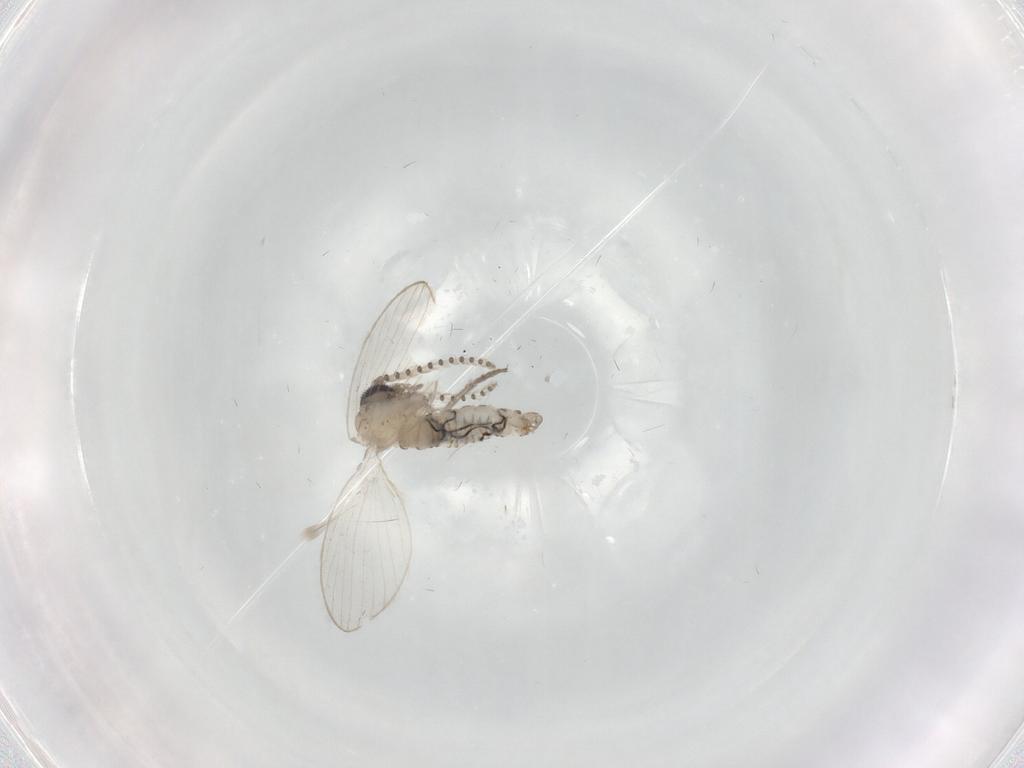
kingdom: Animalia
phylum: Arthropoda
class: Insecta
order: Diptera
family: Psychodidae
